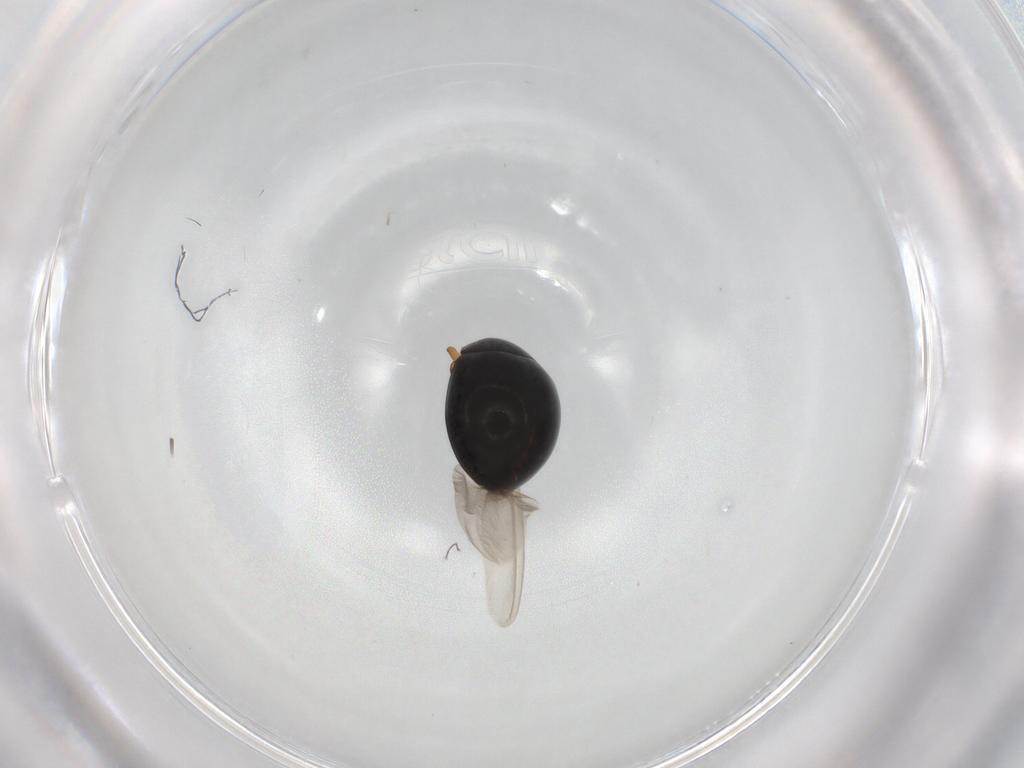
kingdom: Animalia
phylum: Arthropoda
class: Insecta
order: Coleoptera
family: Coccinellidae
